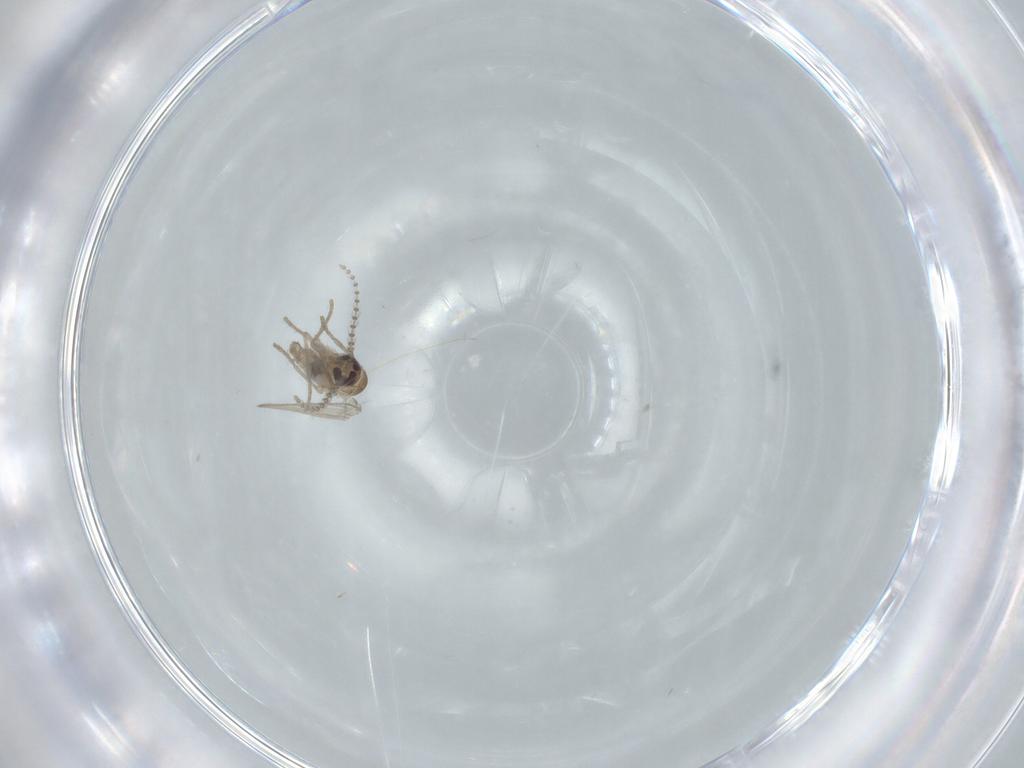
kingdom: Animalia
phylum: Arthropoda
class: Insecta
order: Diptera
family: Psychodidae
